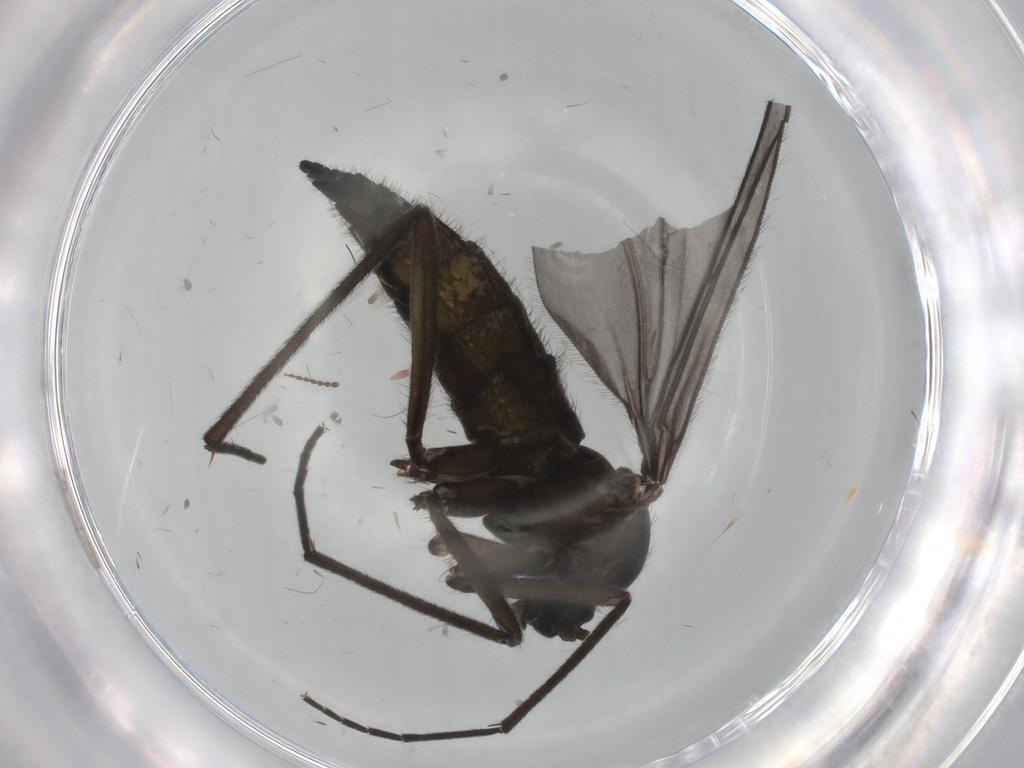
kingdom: Animalia
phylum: Arthropoda
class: Insecta
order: Diptera
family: Sciaridae
